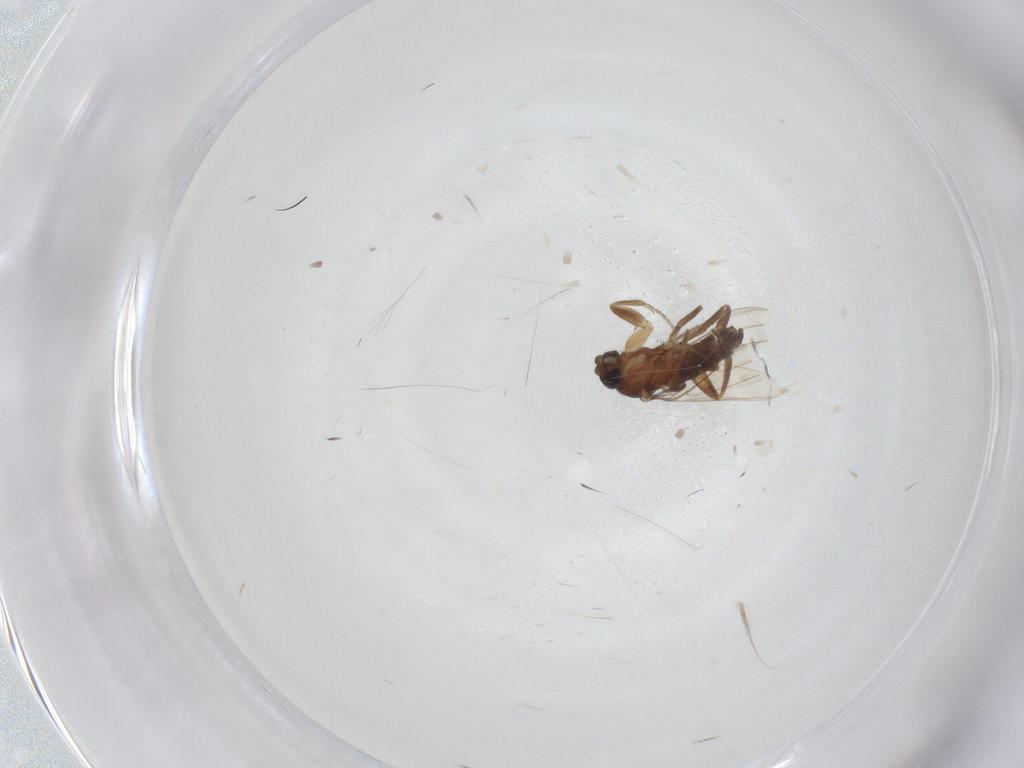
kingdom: Animalia
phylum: Arthropoda
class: Insecta
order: Diptera
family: Phoridae
